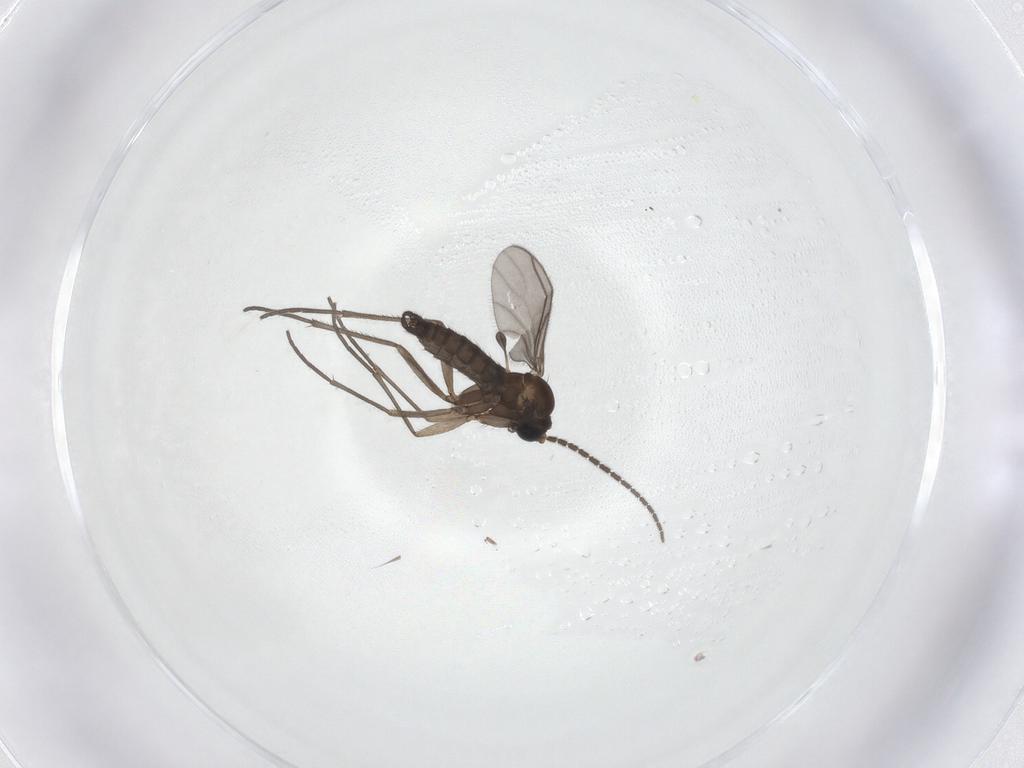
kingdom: Animalia
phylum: Arthropoda
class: Insecta
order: Diptera
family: Sciaridae
